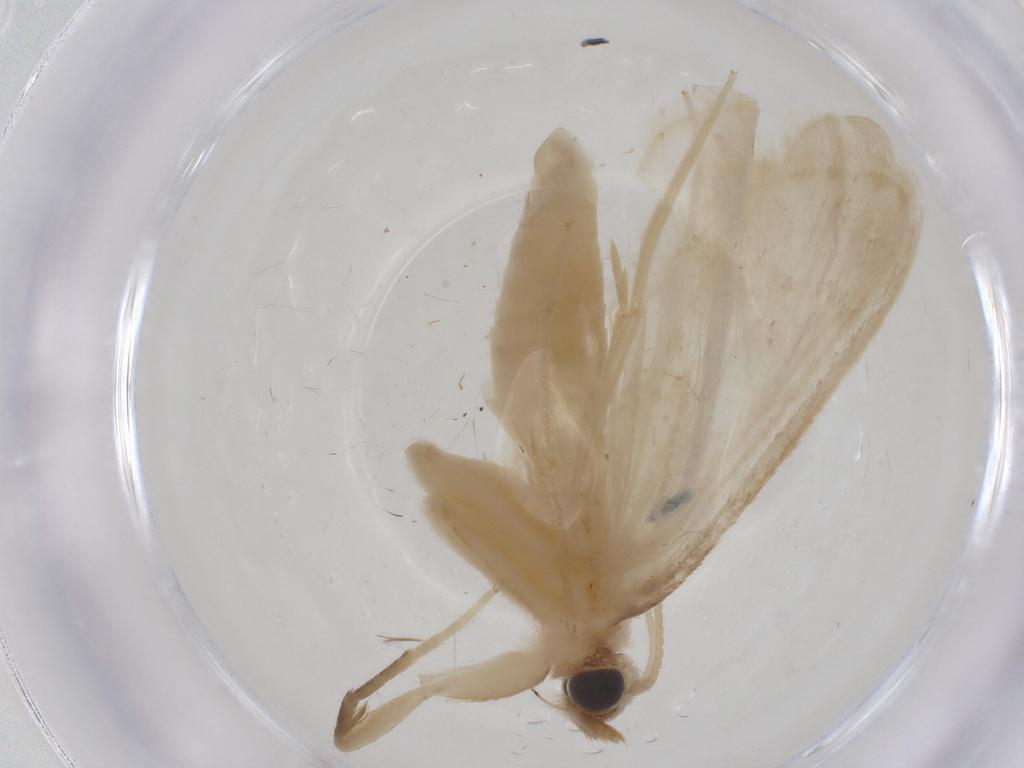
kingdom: Animalia
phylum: Arthropoda
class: Insecta
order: Lepidoptera
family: Crambidae
